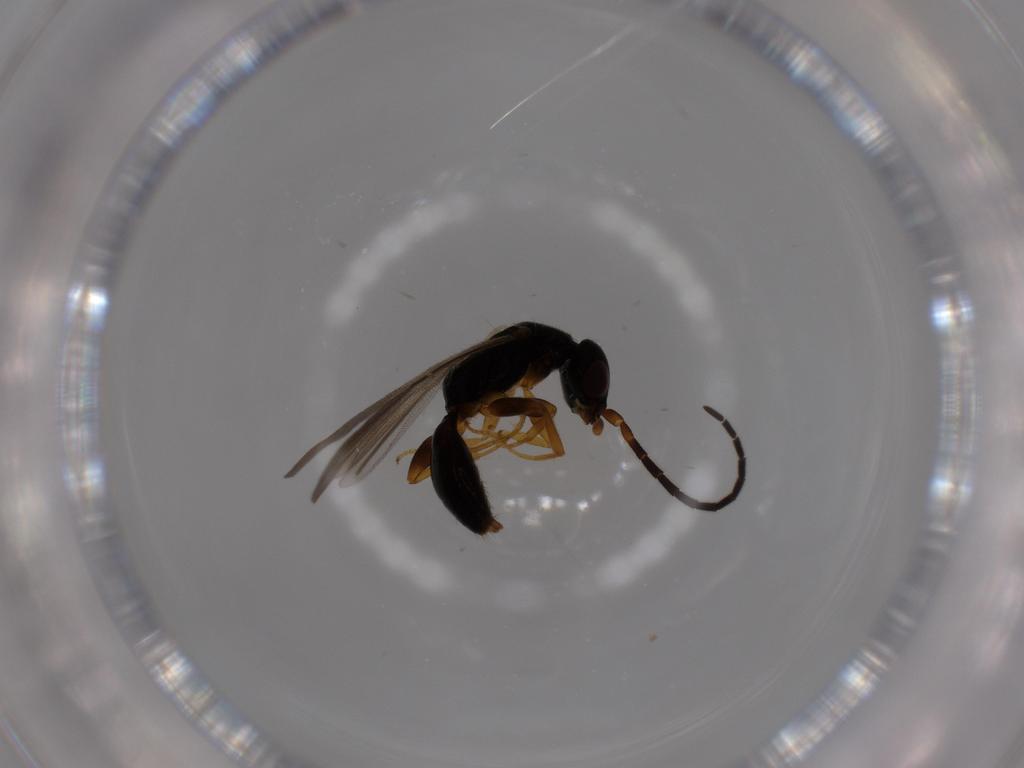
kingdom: Animalia
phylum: Arthropoda
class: Insecta
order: Hymenoptera
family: Bethylidae
